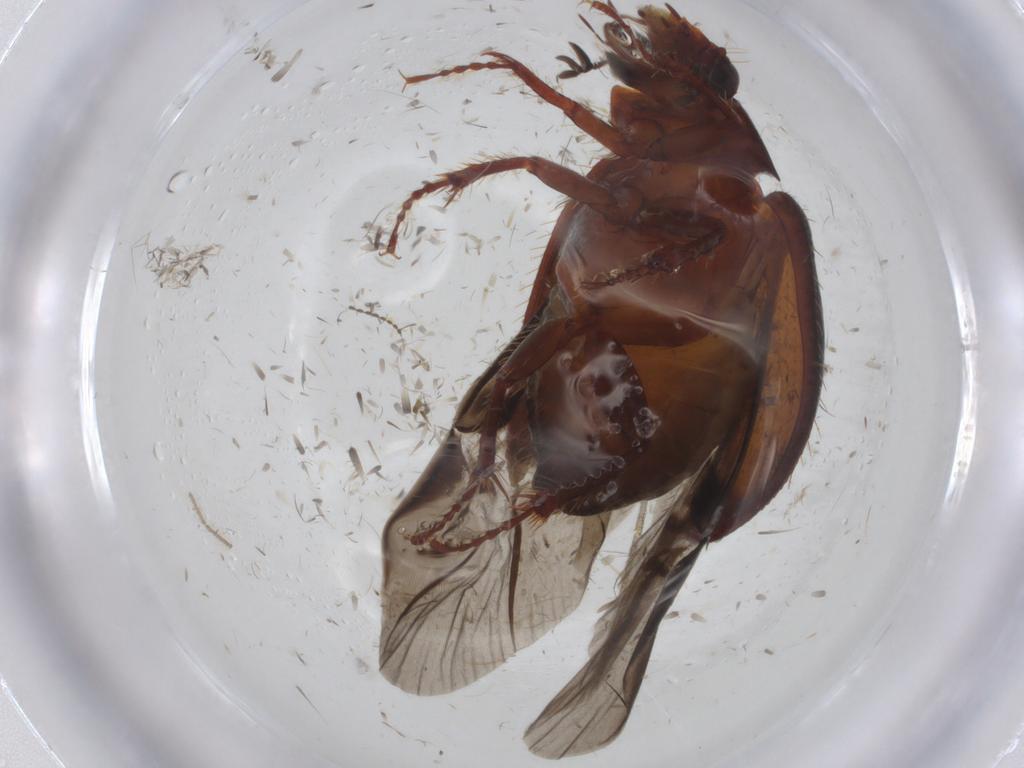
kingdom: Animalia
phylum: Arthropoda
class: Insecta
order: Coleoptera
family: Hybosoridae
